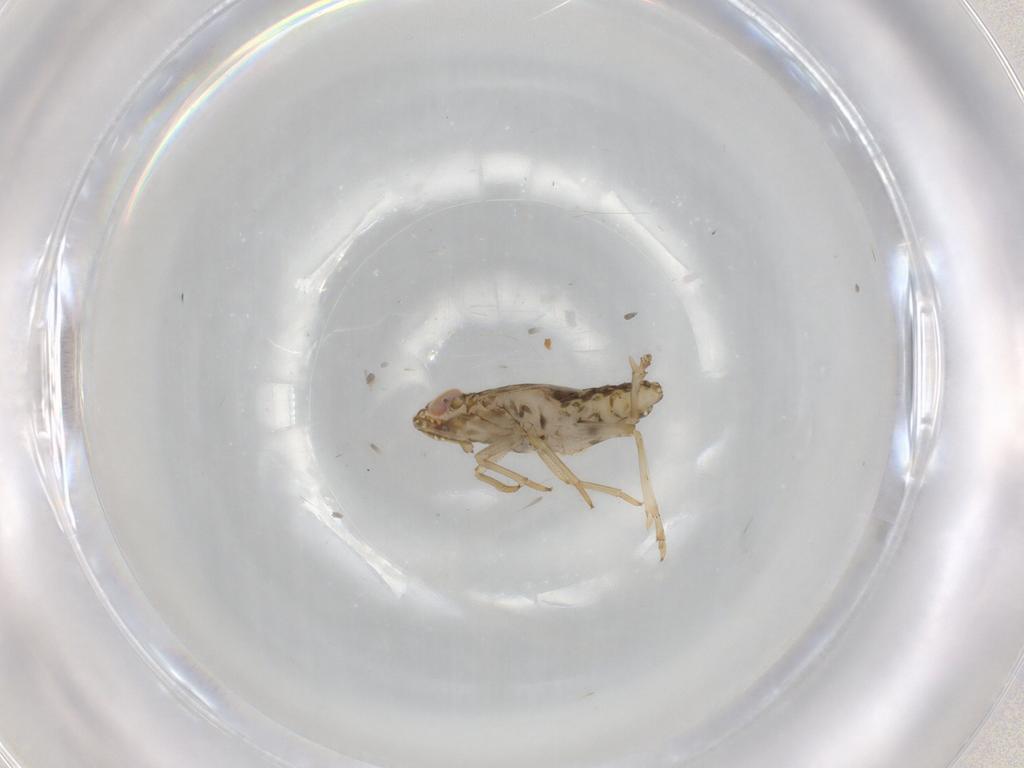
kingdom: Animalia
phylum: Arthropoda
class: Insecta
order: Hemiptera
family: Delphacidae
